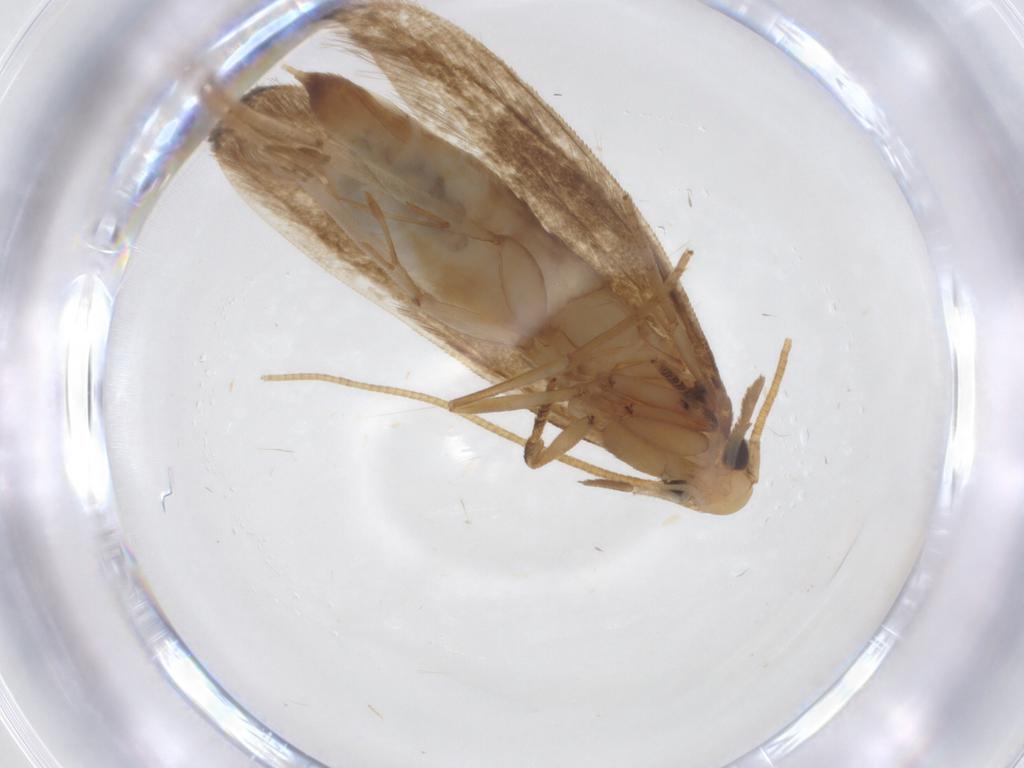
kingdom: Animalia
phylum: Arthropoda
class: Insecta
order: Lepidoptera
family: Tineidae
